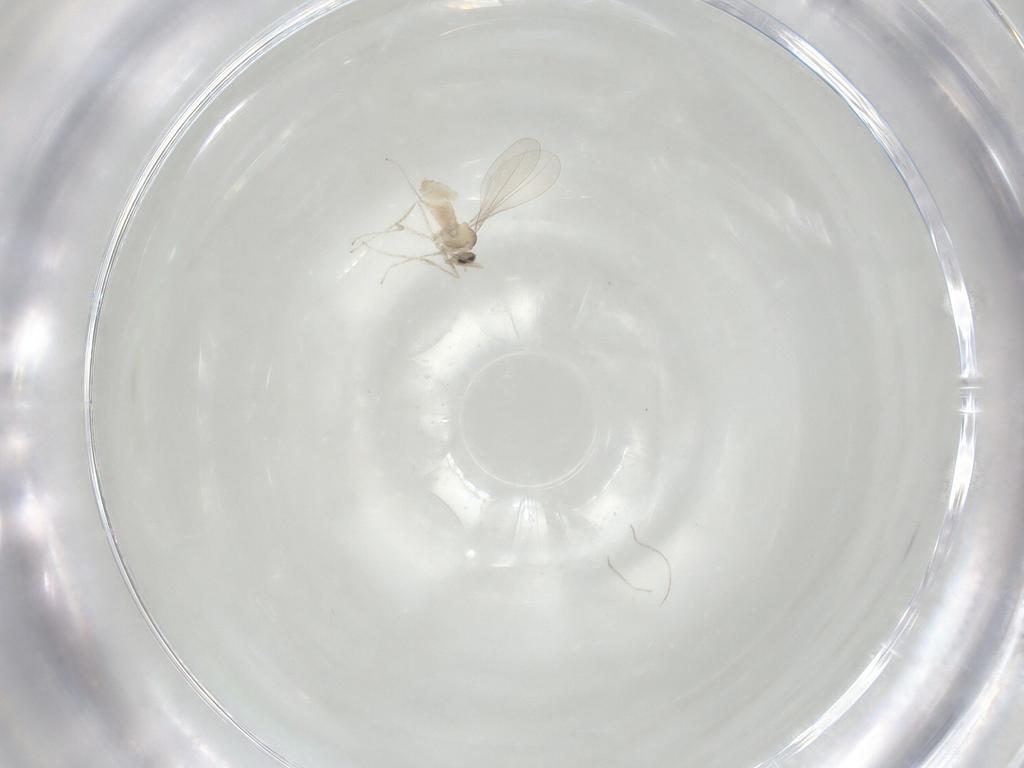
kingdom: Animalia
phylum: Arthropoda
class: Insecta
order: Diptera
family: Cecidomyiidae
